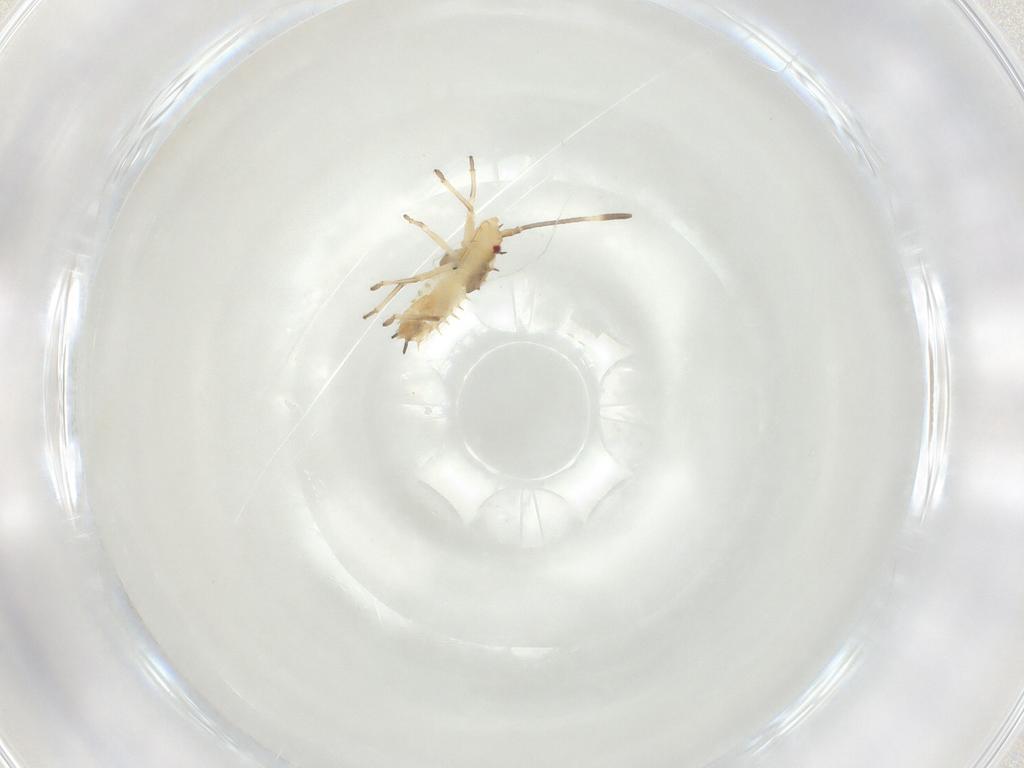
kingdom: Animalia
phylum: Arthropoda
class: Insecta
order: Hemiptera
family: Tingidae
